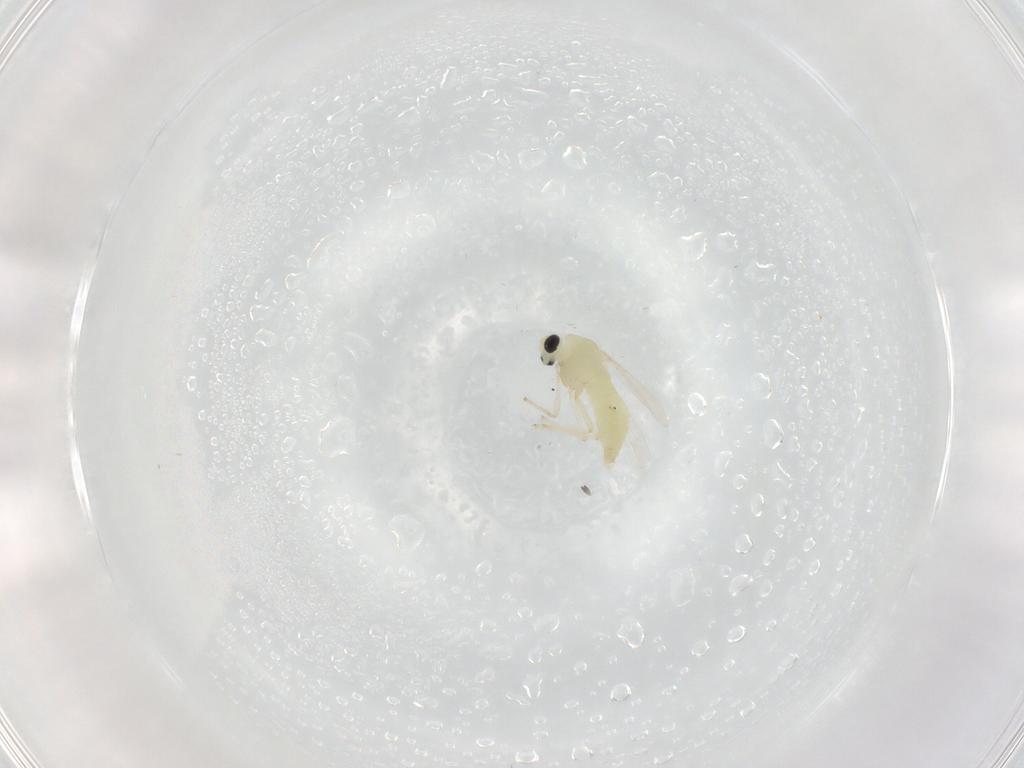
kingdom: Animalia
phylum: Arthropoda
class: Insecta
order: Diptera
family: Chironomidae
